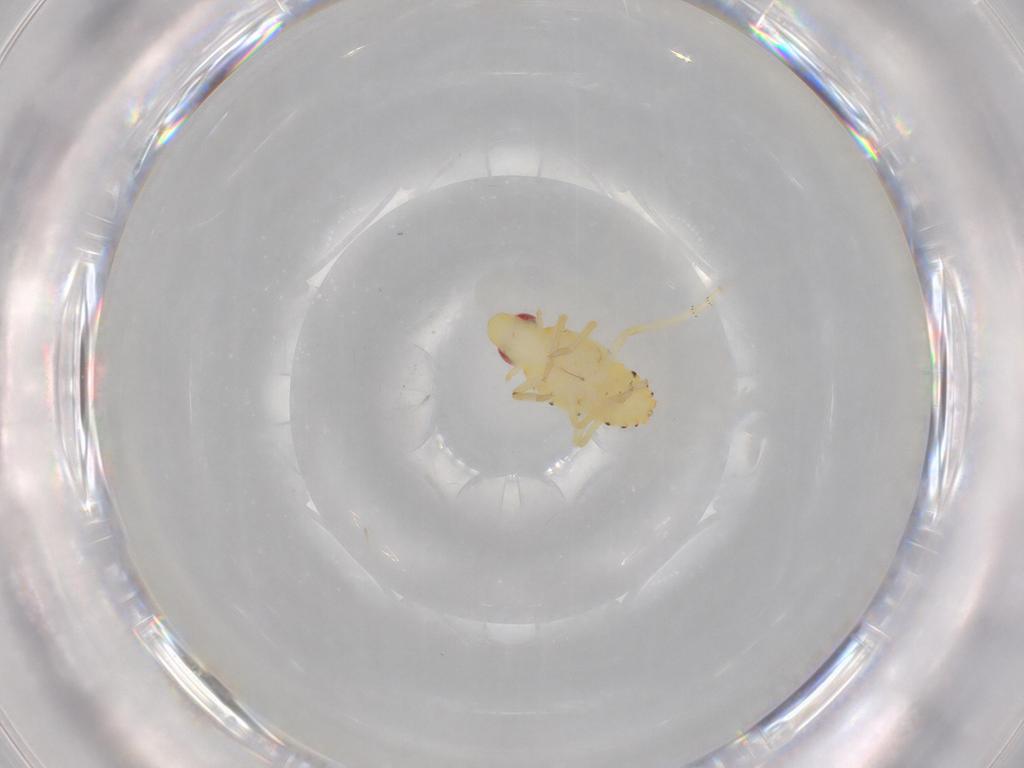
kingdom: Animalia
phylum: Arthropoda
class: Insecta
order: Hemiptera
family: Tropiduchidae
